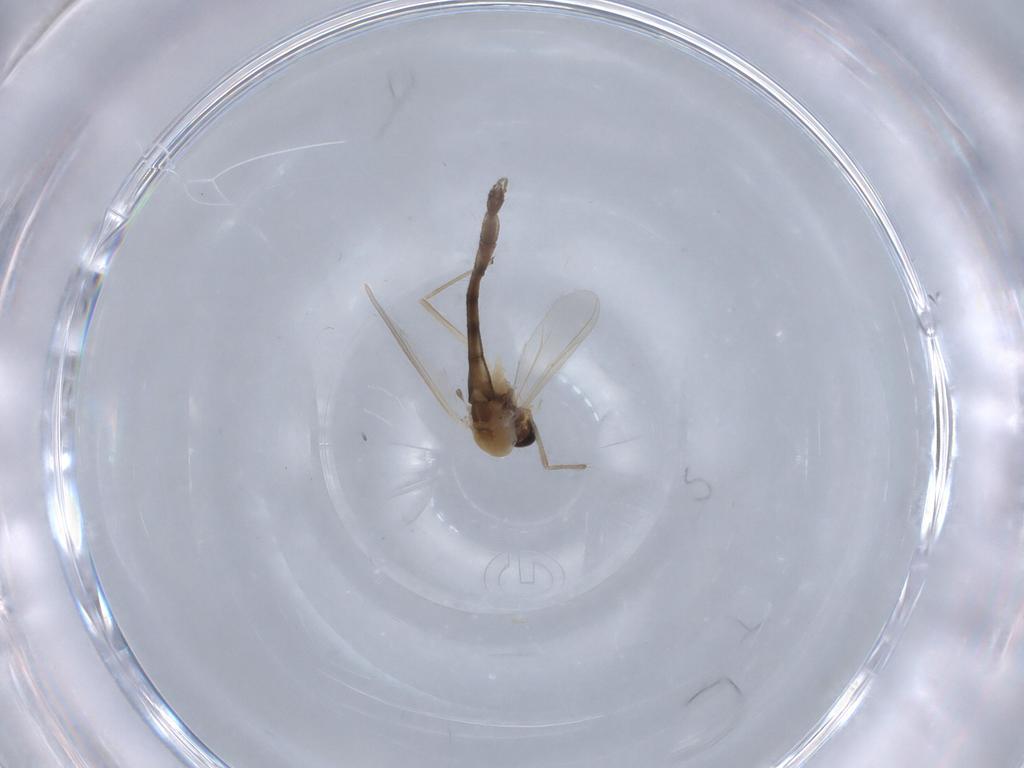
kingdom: Animalia
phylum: Arthropoda
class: Insecta
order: Diptera
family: Chironomidae
